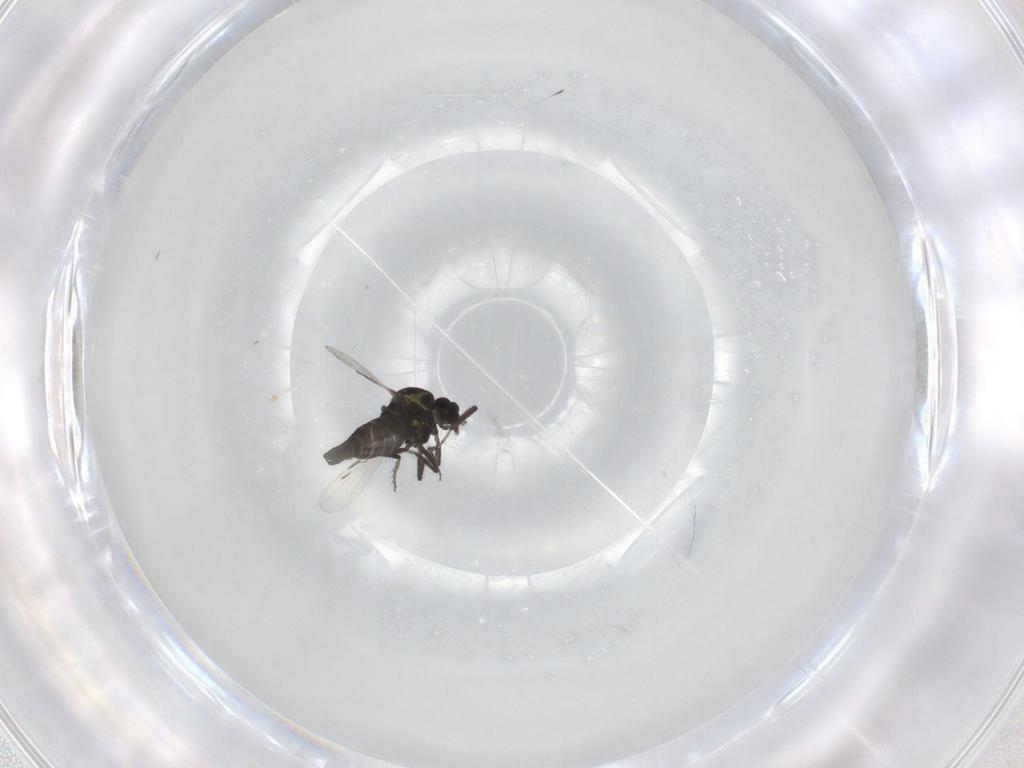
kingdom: Animalia
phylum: Arthropoda
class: Insecta
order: Diptera
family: Ceratopogonidae
